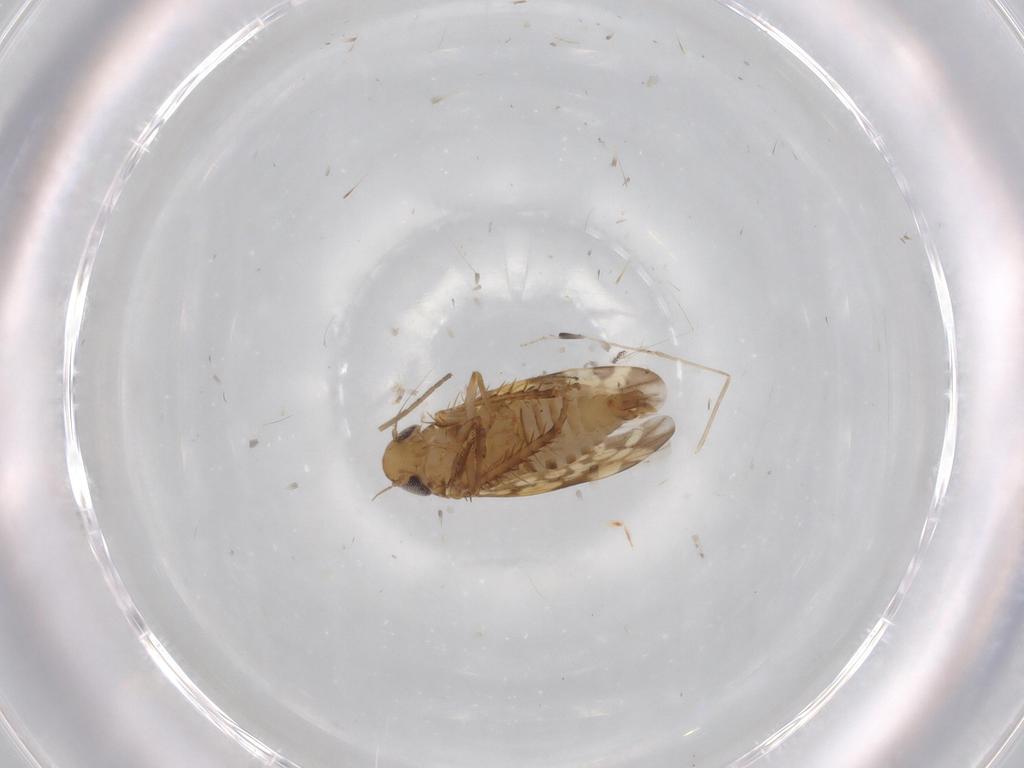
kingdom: Animalia
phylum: Arthropoda
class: Insecta
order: Hemiptera
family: Cicadellidae
